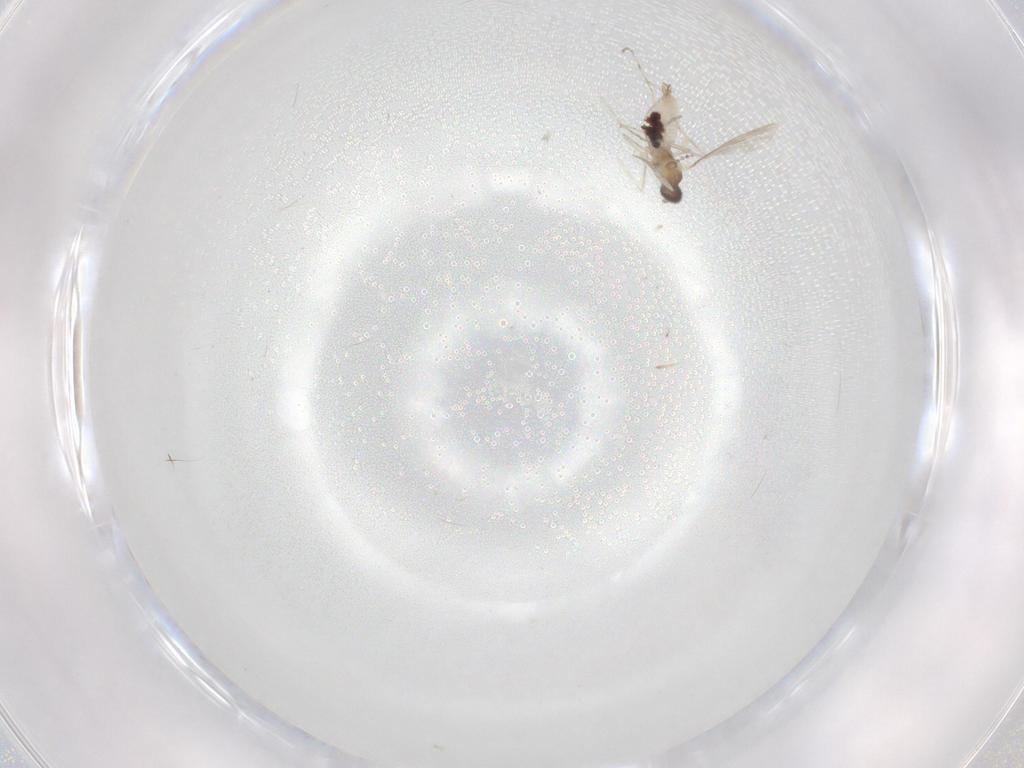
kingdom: Animalia
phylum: Arthropoda
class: Insecta
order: Diptera
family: Cecidomyiidae
